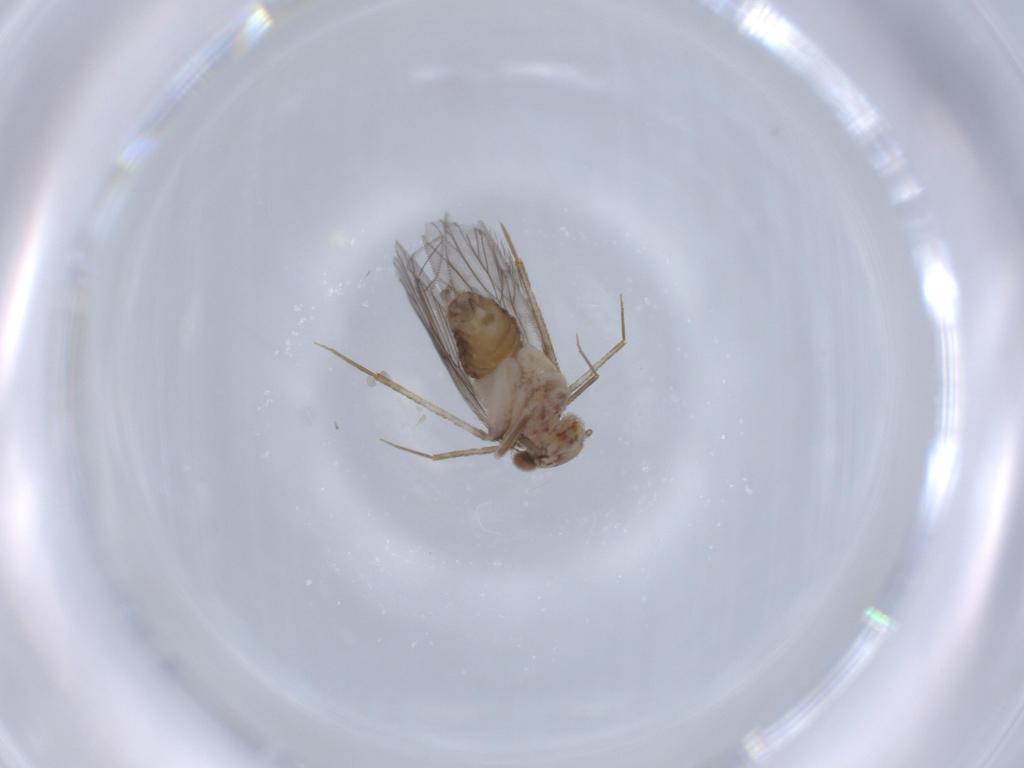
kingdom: Animalia
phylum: Arthropoda
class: Insecta
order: Psocodea
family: Lepidopsocidae
